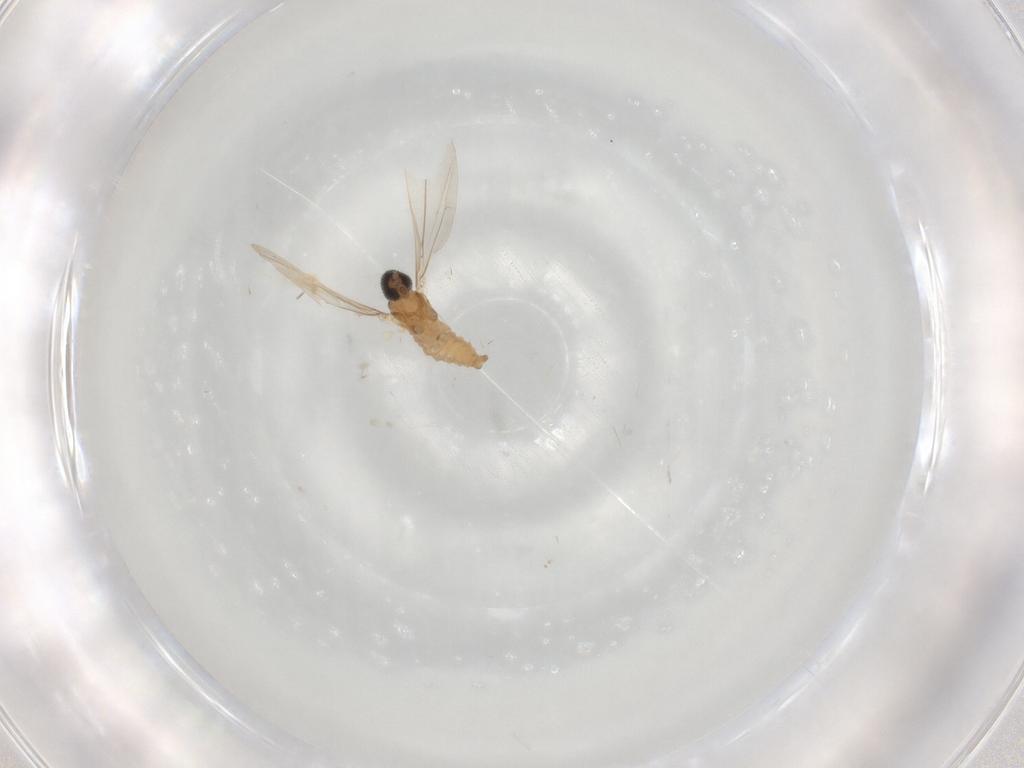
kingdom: Animalia
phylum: Arthropoda
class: Insecta
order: Diptera
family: Cecidomyiidae
